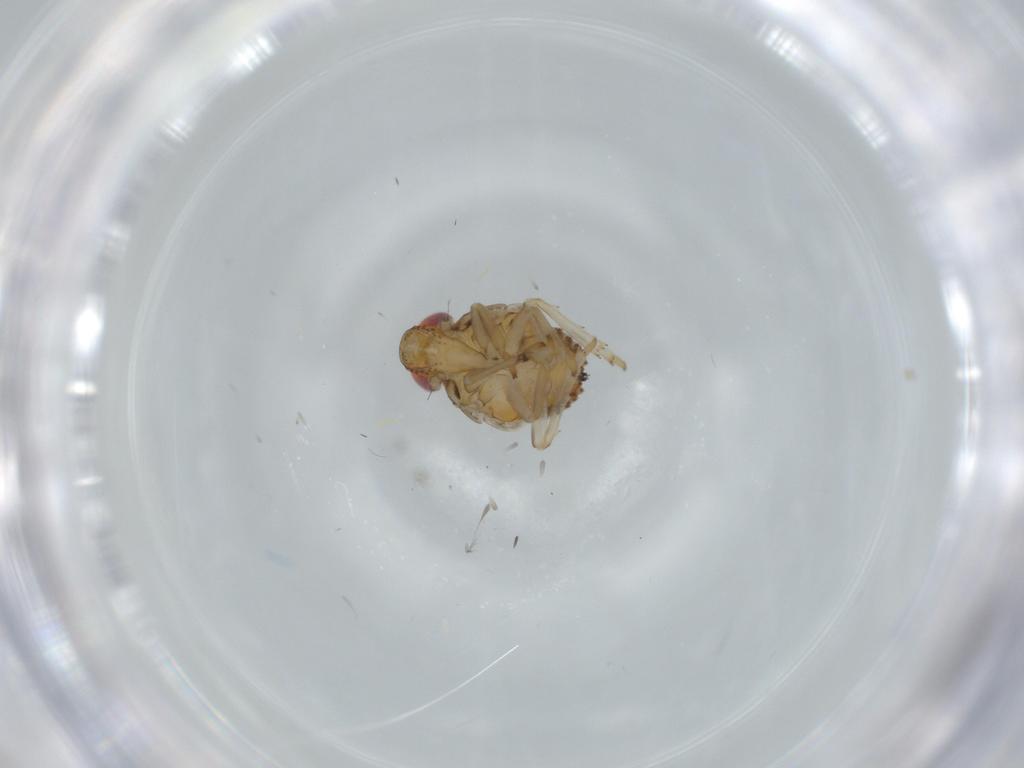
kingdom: Animalia
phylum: Arthropoda
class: Insecta
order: Hemiptera
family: Issidae
